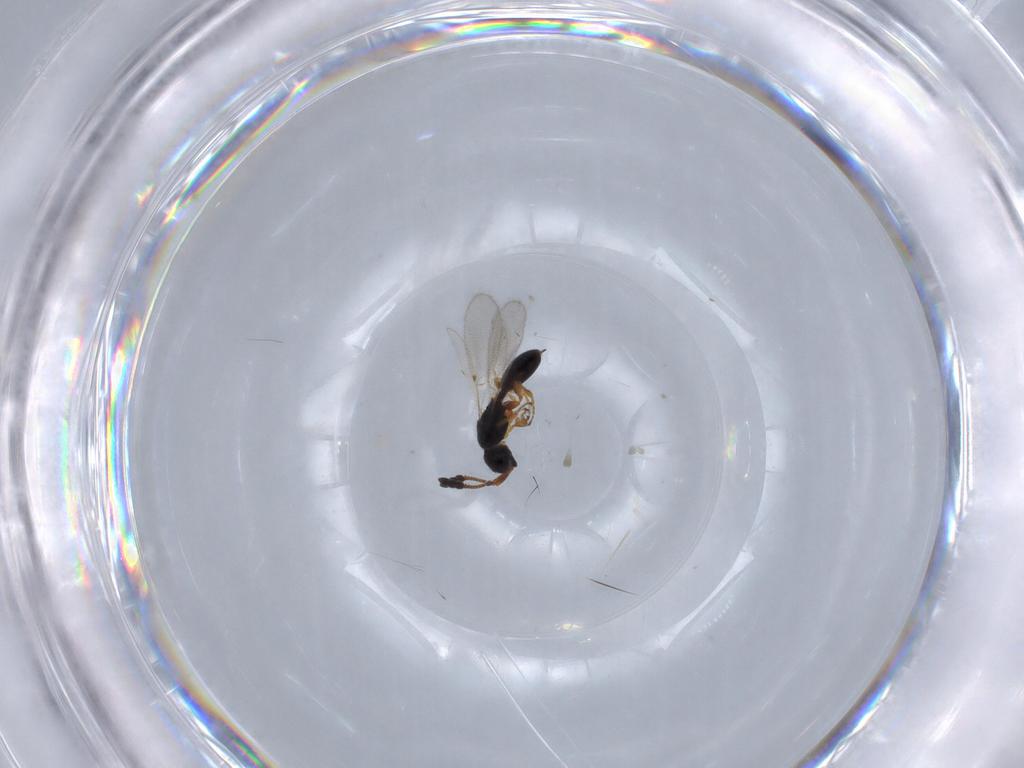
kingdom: Animalia
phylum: Arthropoda
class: Insecta
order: Hymenoptera
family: Diapriidae
